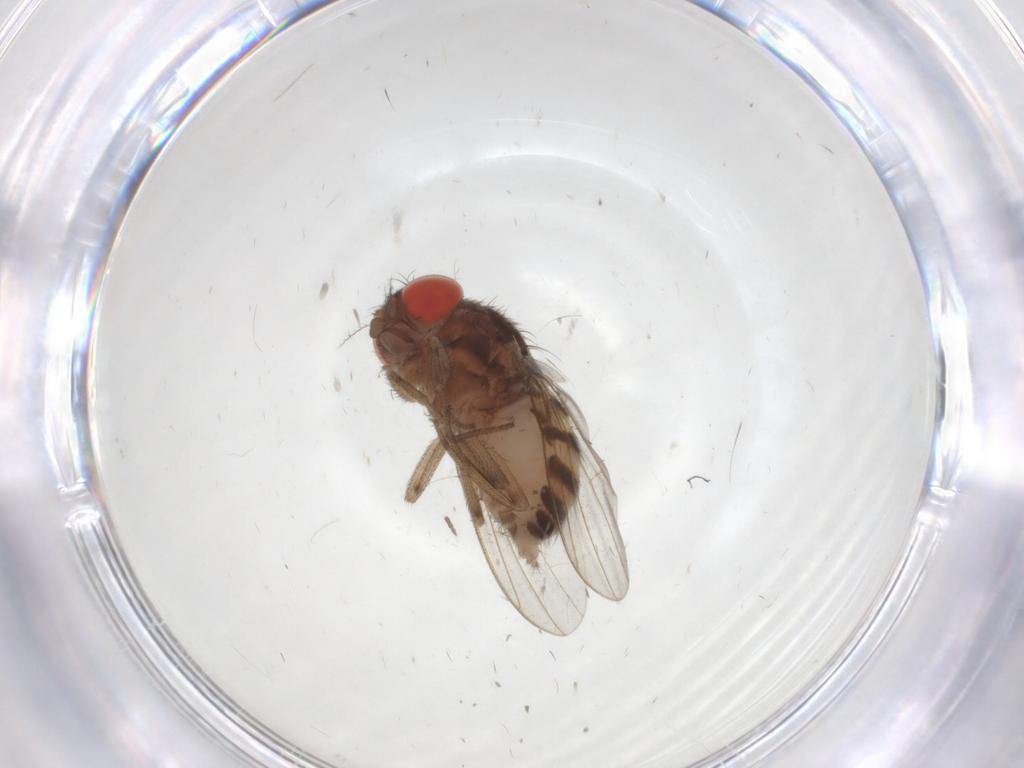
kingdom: Animalia
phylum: Arthropoda
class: Insecta
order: Diptera
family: Drosophilidae
